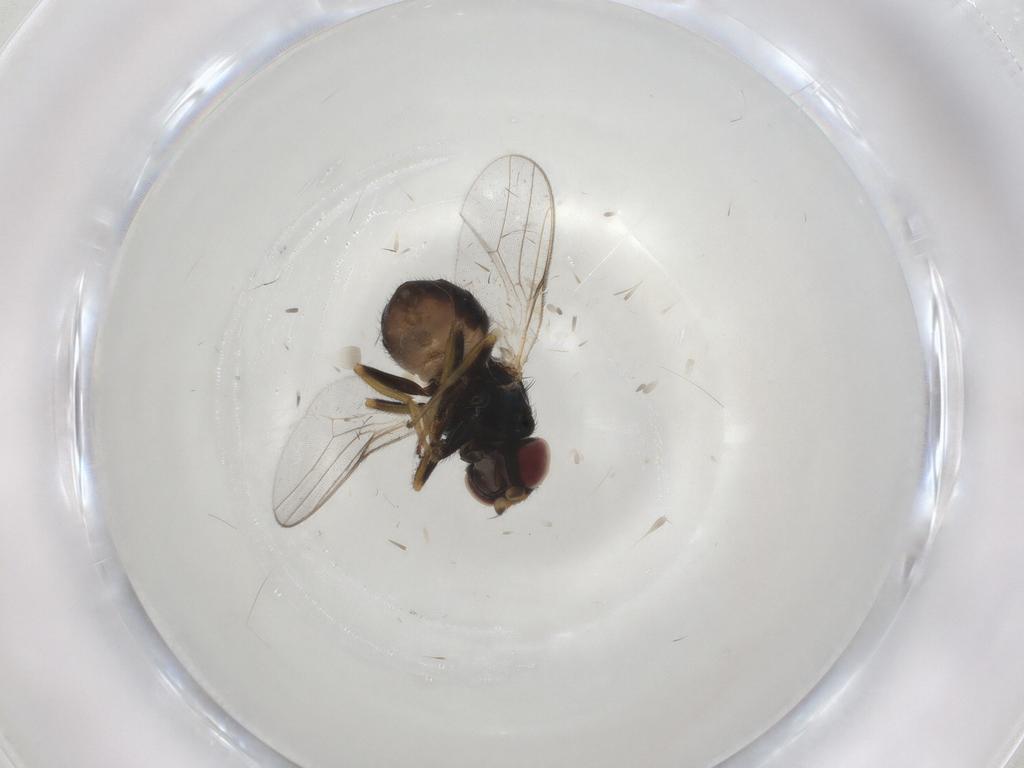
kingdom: Animalia
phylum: Arthropoda
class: Insecta
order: Diptera
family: Chloropidae
